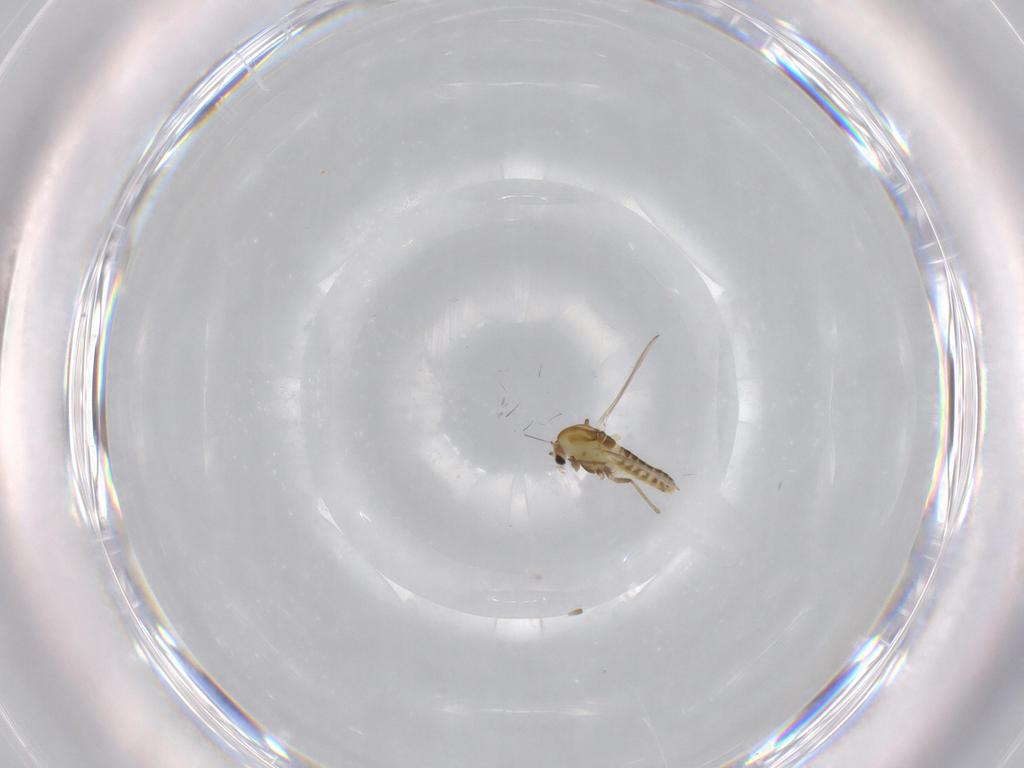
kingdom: Animalia
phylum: Arthropoda
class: Insecta
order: Diptera
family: Chironomidae
